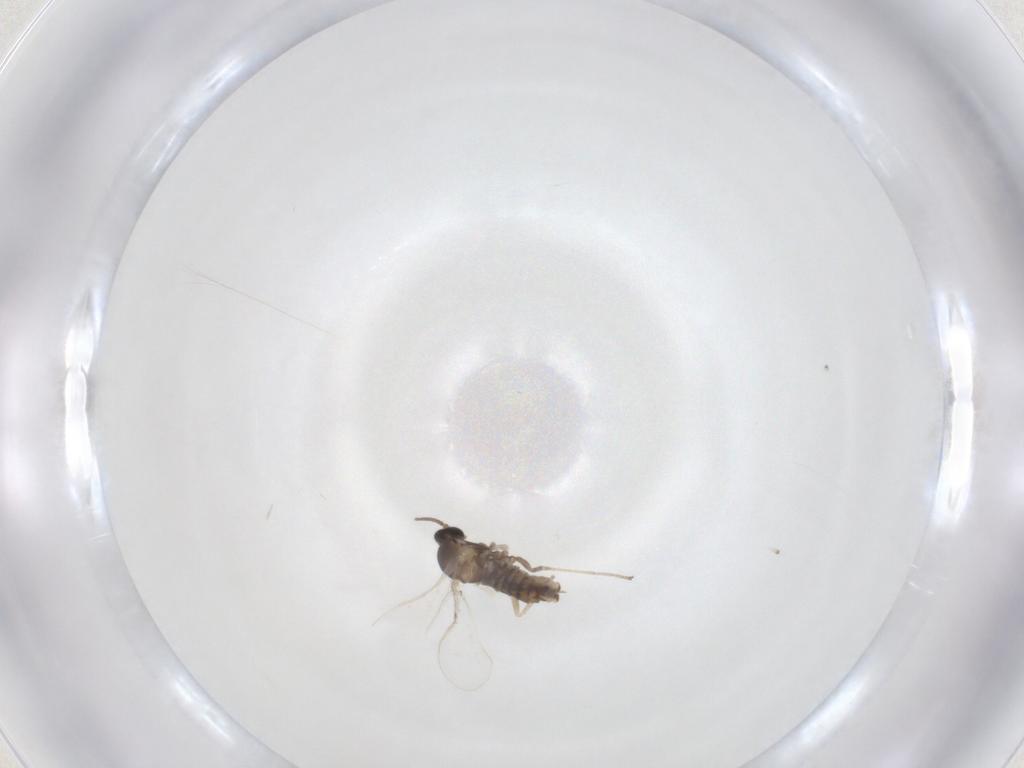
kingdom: Animalia
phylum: Arthropoda
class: Insecta
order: Diptera
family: Cecidomyiidae
